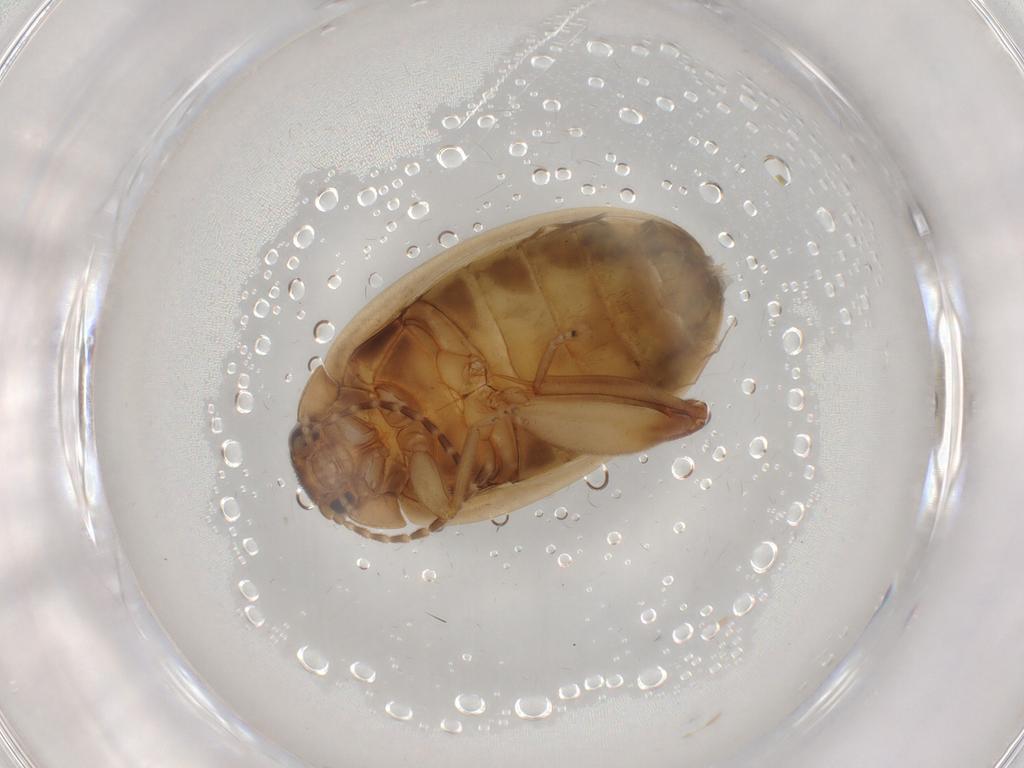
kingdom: Animalia
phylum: Arthropoda
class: Insecta
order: Coleoptera
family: Scirtidae
